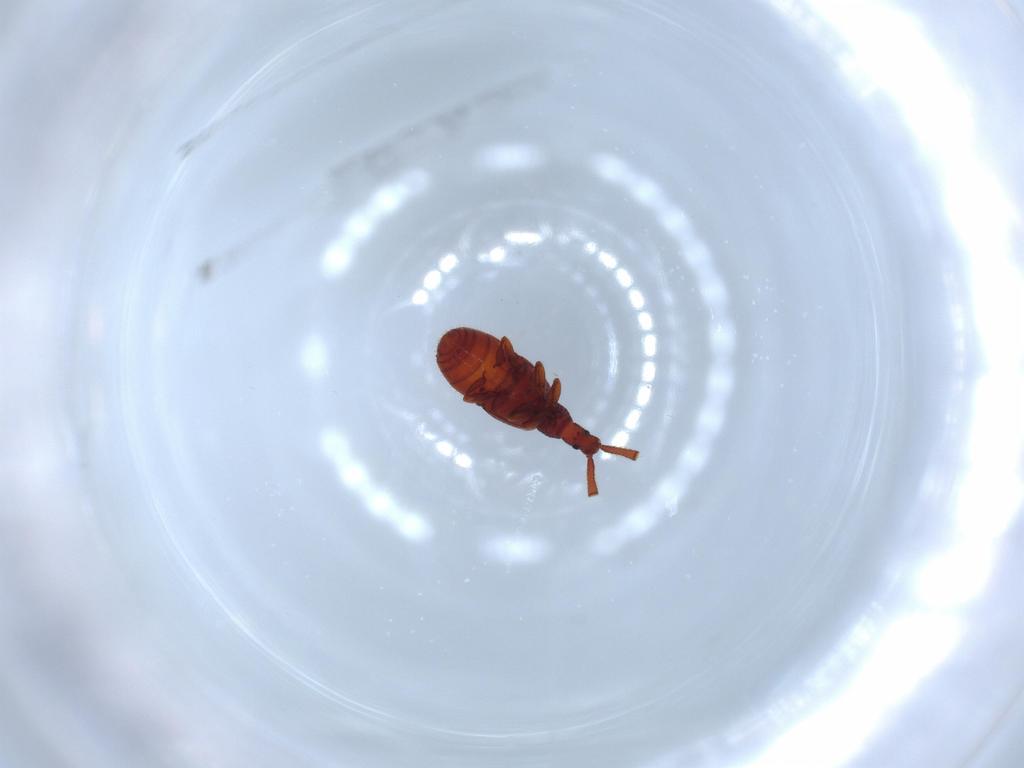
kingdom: Animalia
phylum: Arthropoda
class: Insecta
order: Coleoptera
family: Staphylinidae
